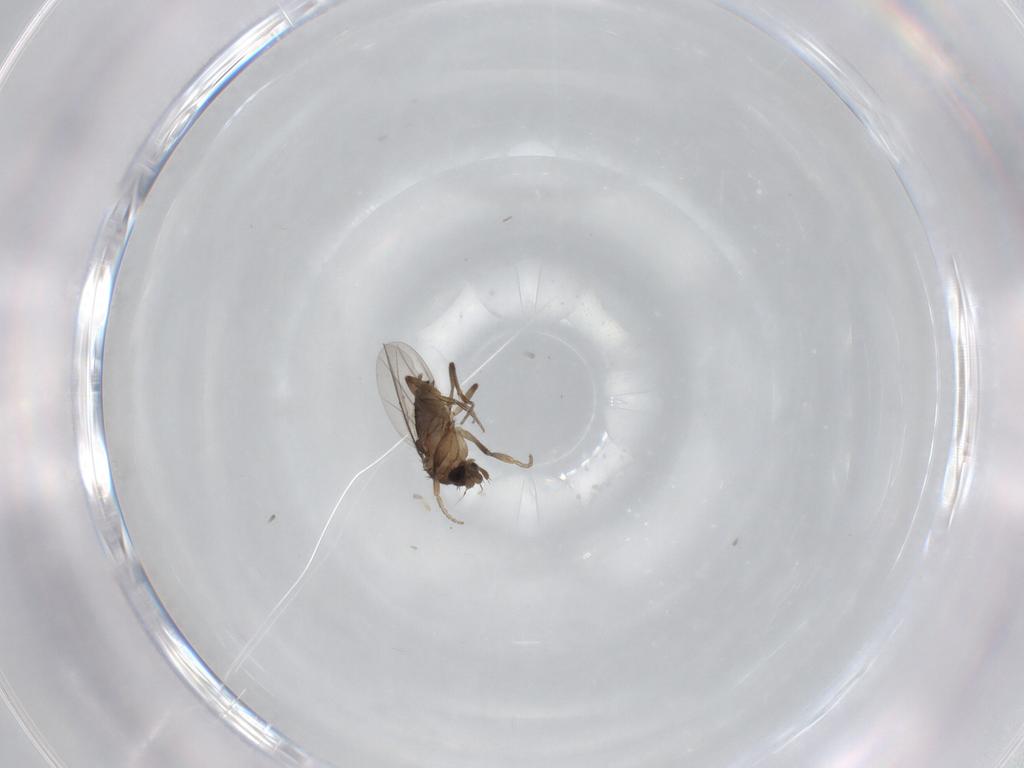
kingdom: Animalia
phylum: Arthropoda
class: Insecta
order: Diptera
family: Phoridae
